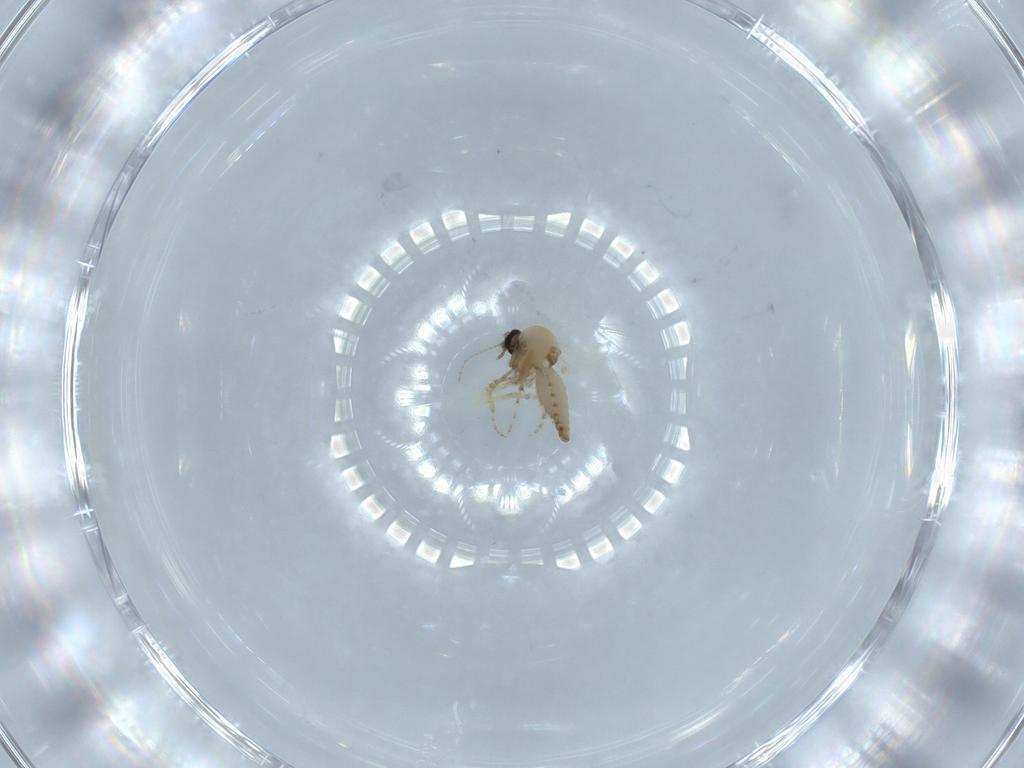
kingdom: Animalia
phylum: Arthropoda
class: Insecta
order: Diptera
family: Ceratopogonidae
